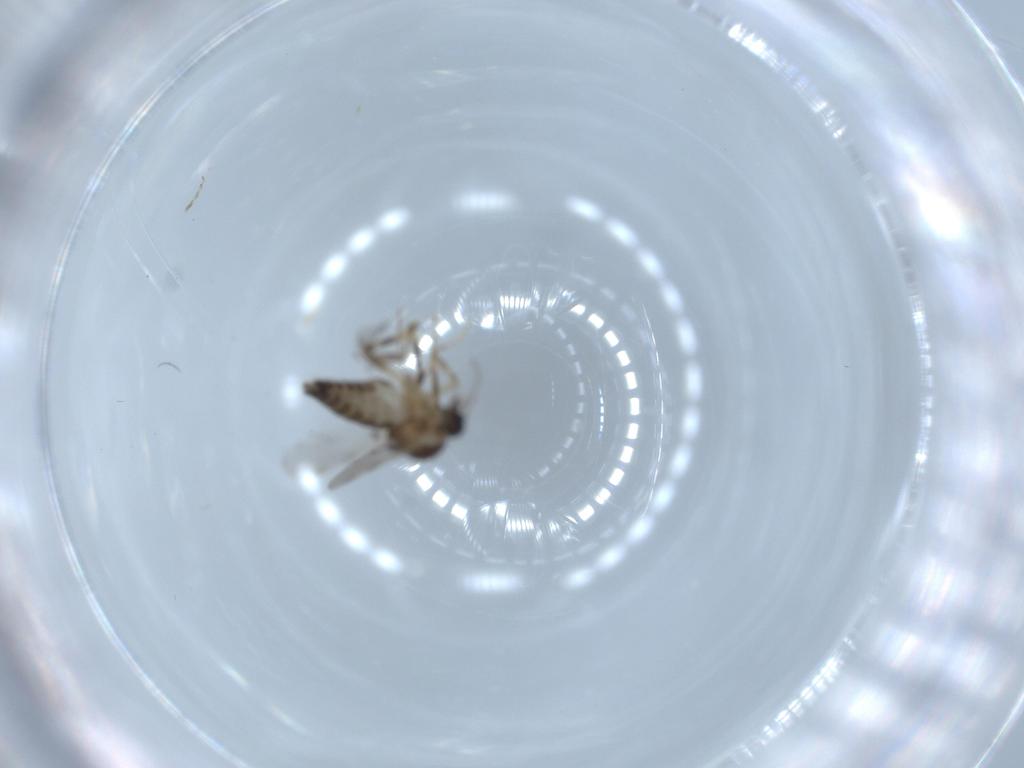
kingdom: Animalia
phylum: Arthropoda
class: Insecta
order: Diptera
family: Ceratopogonidae
